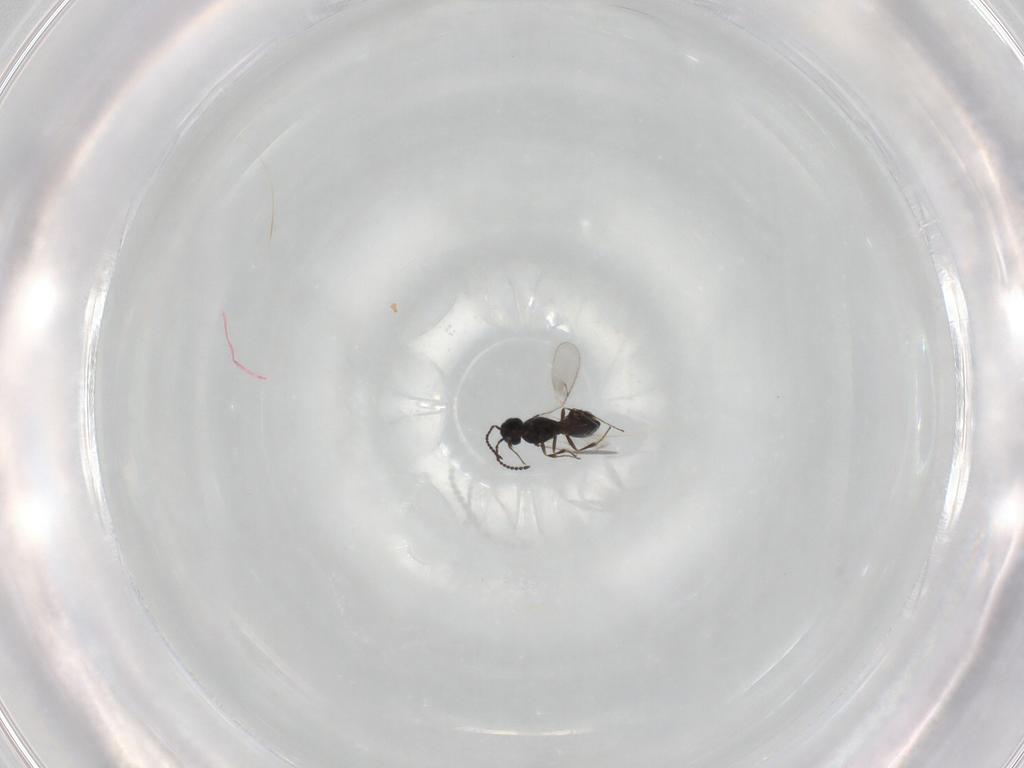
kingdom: Animalia
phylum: Arthropoda
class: Insecta
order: Hymenoptera
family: Scelionidae
